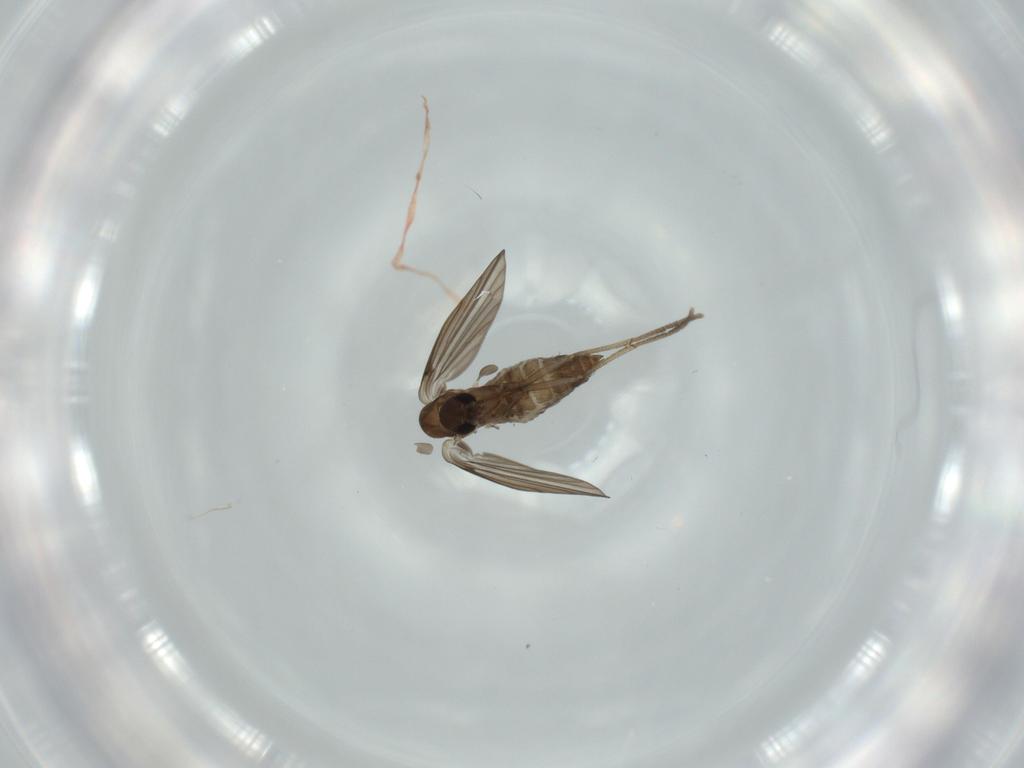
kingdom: Animalia
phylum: Arthropoda
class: Insecta
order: Diptera
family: Psychodidae
